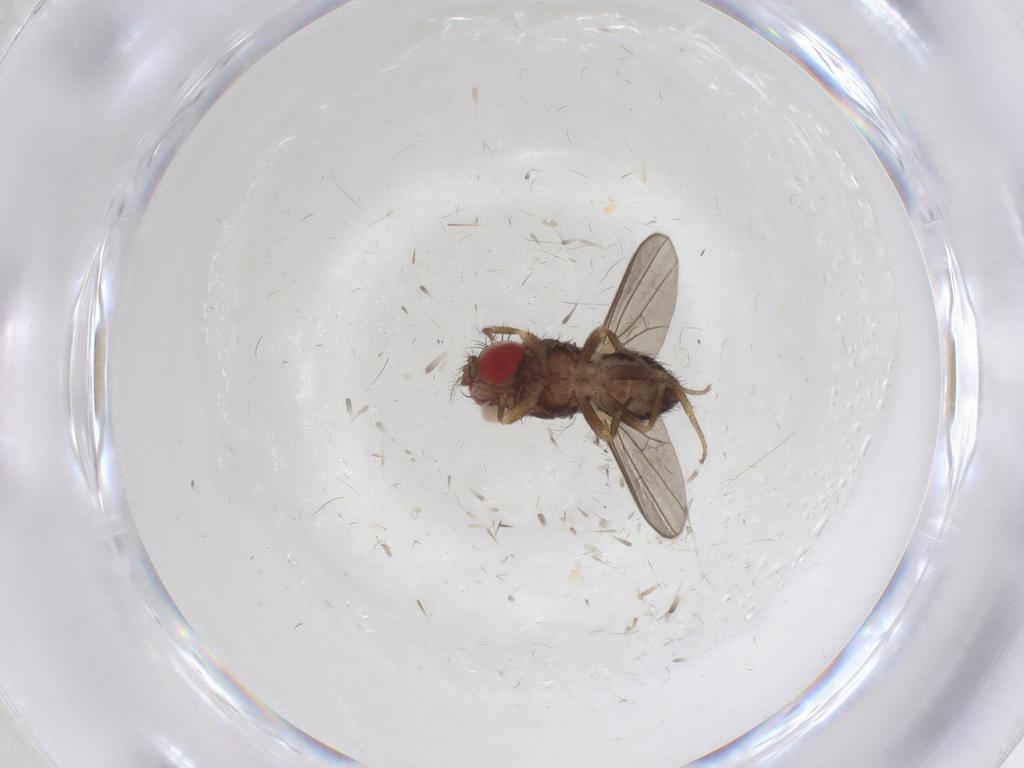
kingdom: Animalia
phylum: Arthropoda
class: Insecta
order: Diptera
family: Drosophilidae
